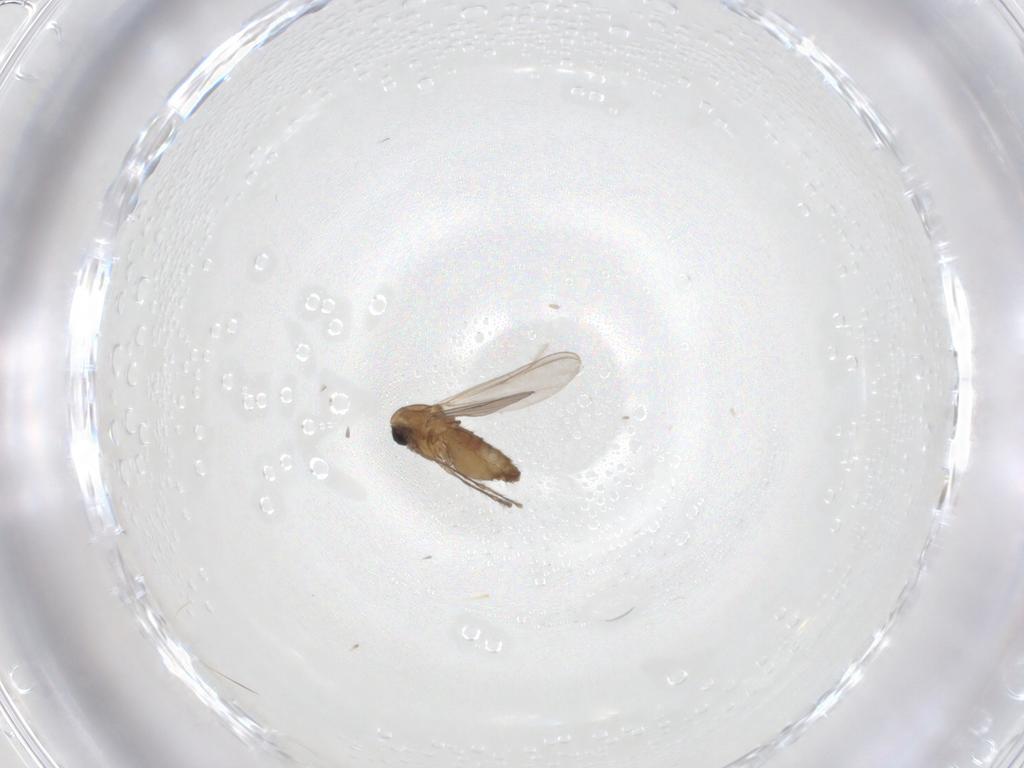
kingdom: Animalia
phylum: Arthropoda
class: Insecta
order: Diptera
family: Chironomidae
